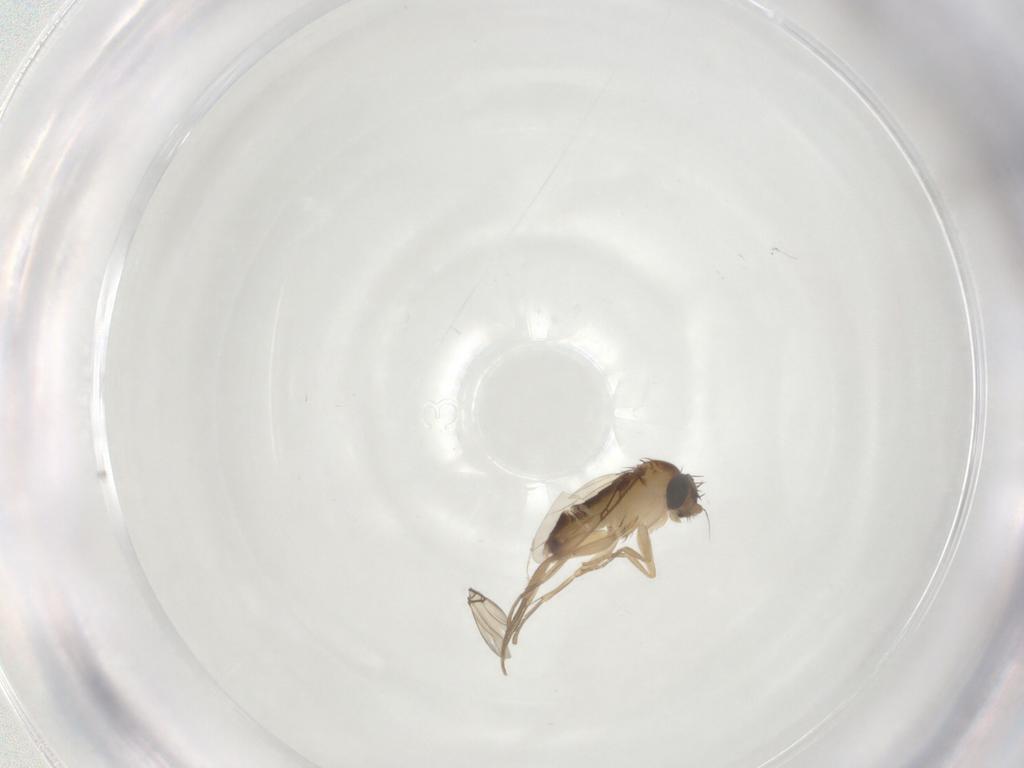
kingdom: Animalia
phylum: Arthropoda
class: Insecta
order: Diptera
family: Phoridae
